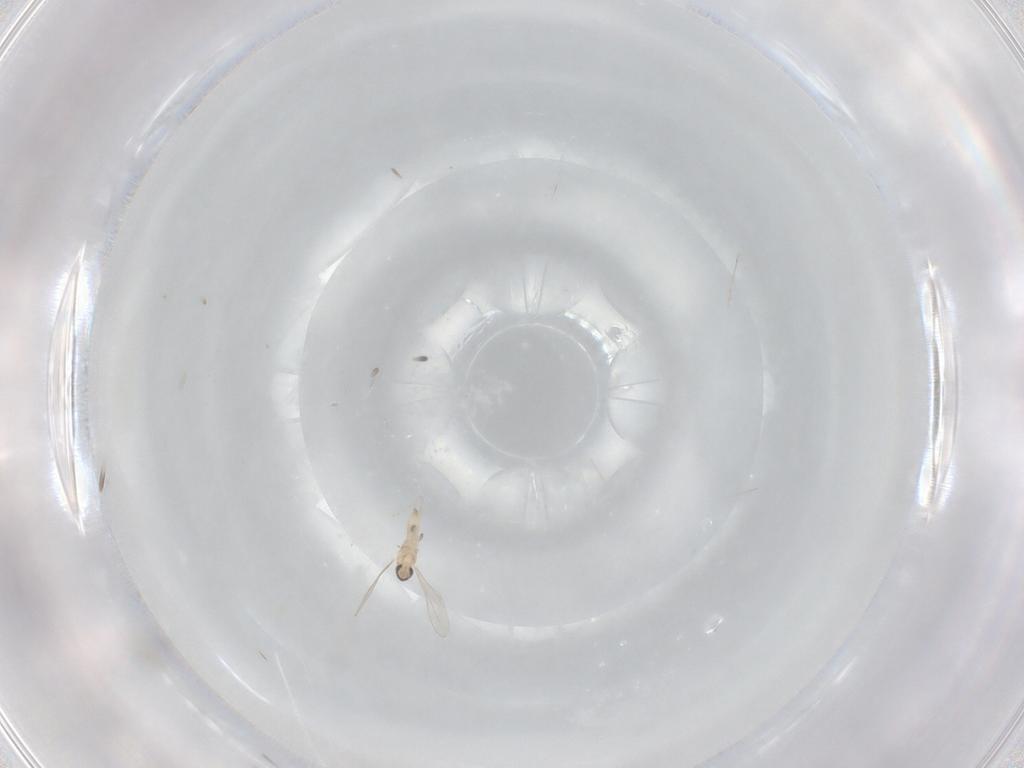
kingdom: Animalia
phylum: Arthropoda
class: Insecta
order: Diptera
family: Cecidomyiidae
